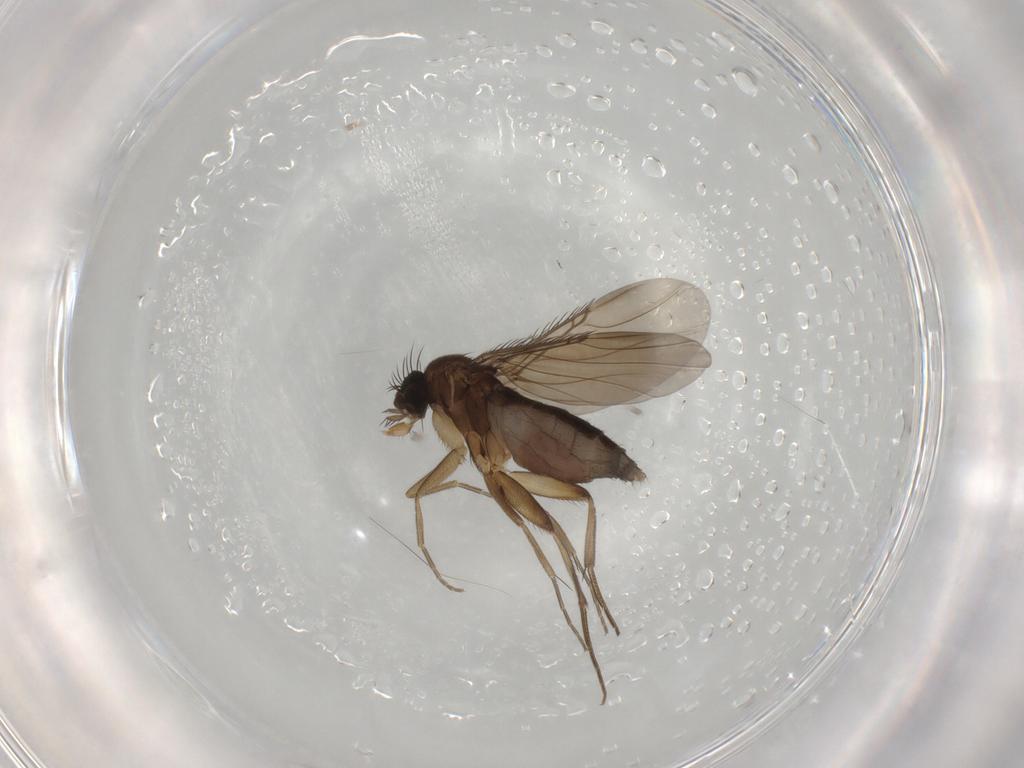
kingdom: Animalia
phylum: Arthropoda
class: Insecta
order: Diptera
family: Phoridae
